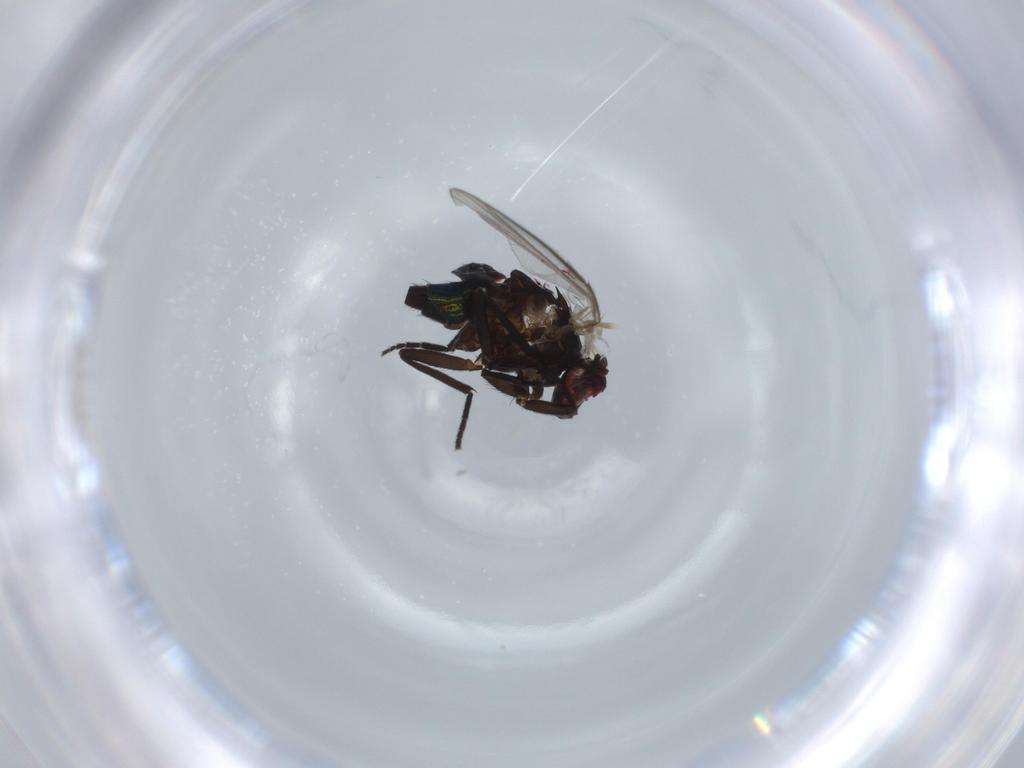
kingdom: Animalia
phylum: Arthropoda
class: Insecta
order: Diptera
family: Agromyzidae
